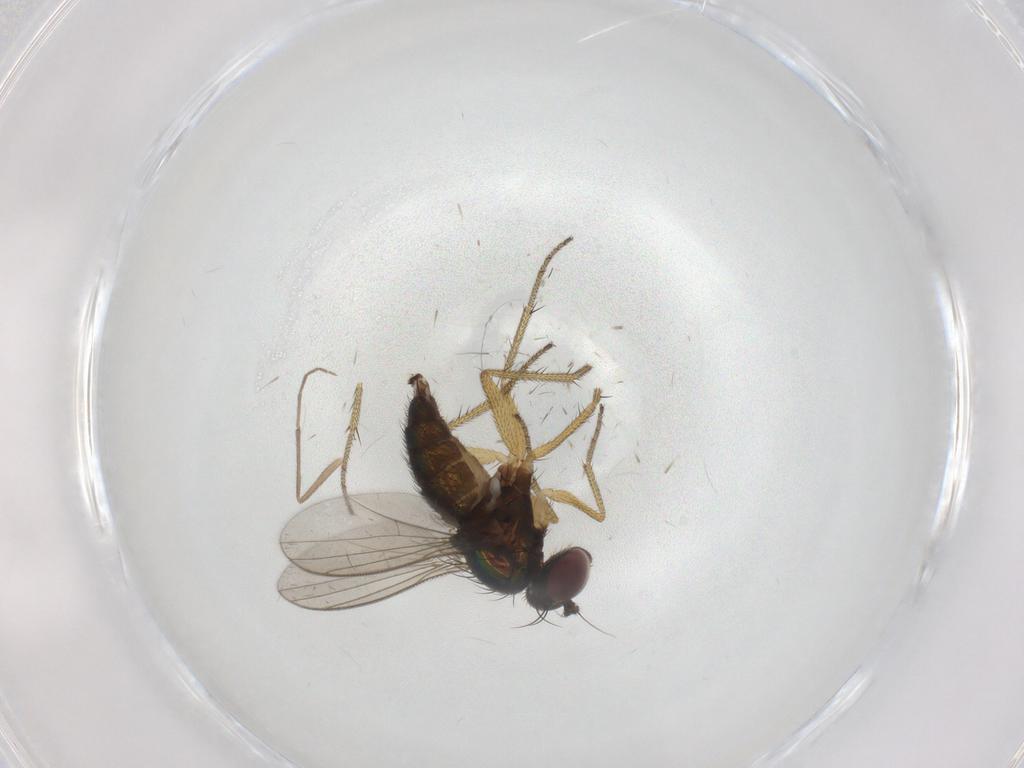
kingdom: Animalia
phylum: Arthropoda
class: Insecta
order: Diptera
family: Dolichopodidae
